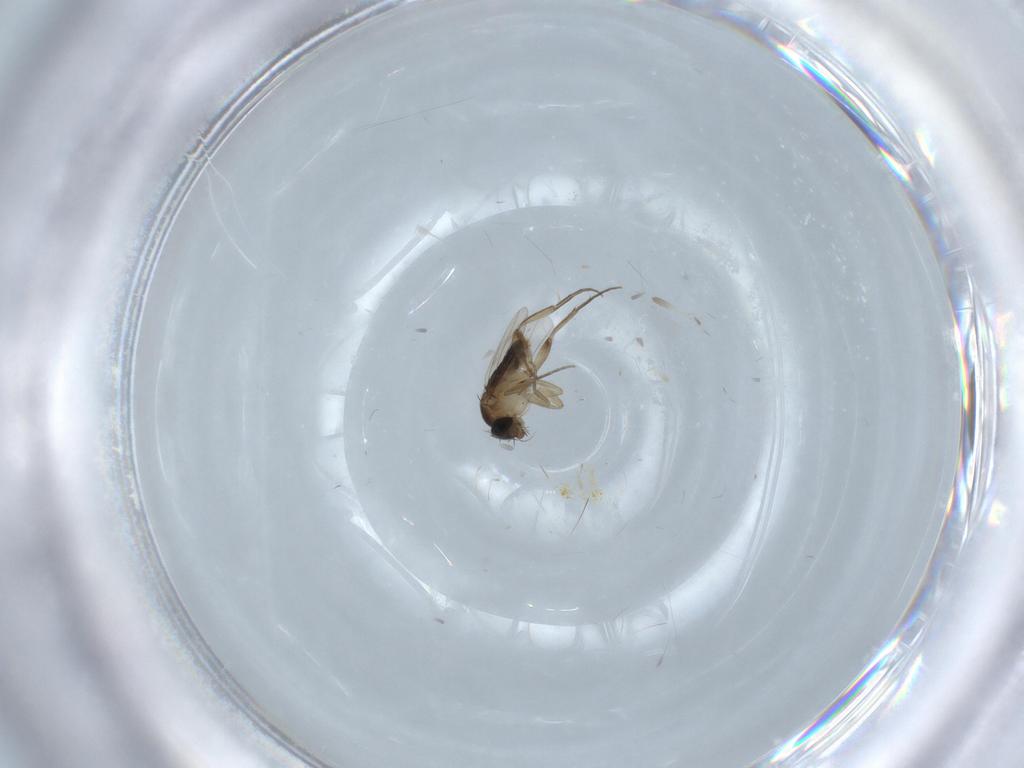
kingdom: Animalia
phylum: Arthropoda
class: Insecta
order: Diptera
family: Cecidomyiidae
